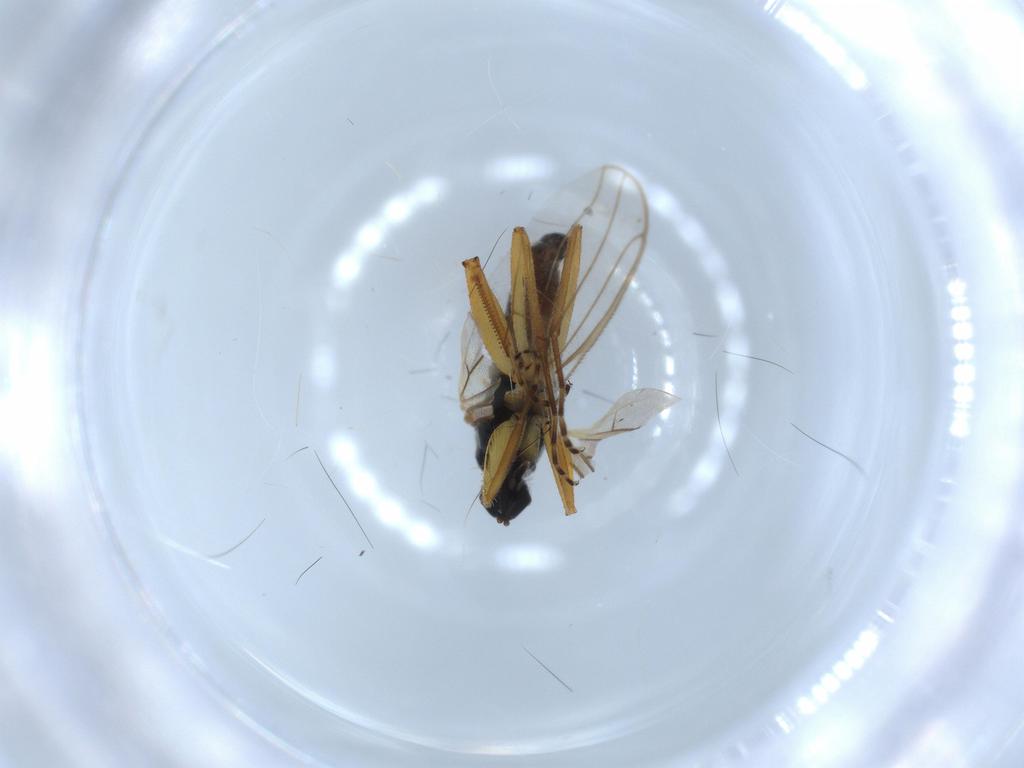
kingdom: Animalia
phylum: Arthropoda
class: Insecta
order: Diptera
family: Hybotidae
